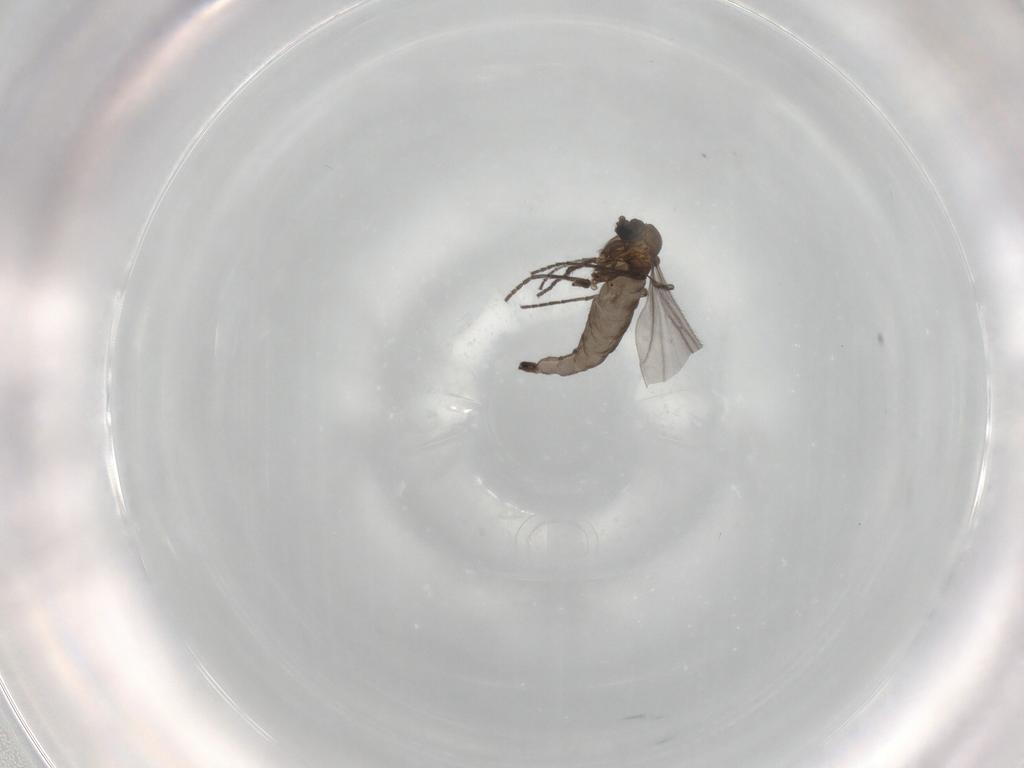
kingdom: Animalia
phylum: Arthropoda
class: Insecta
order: Diptera
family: Sciaridae
